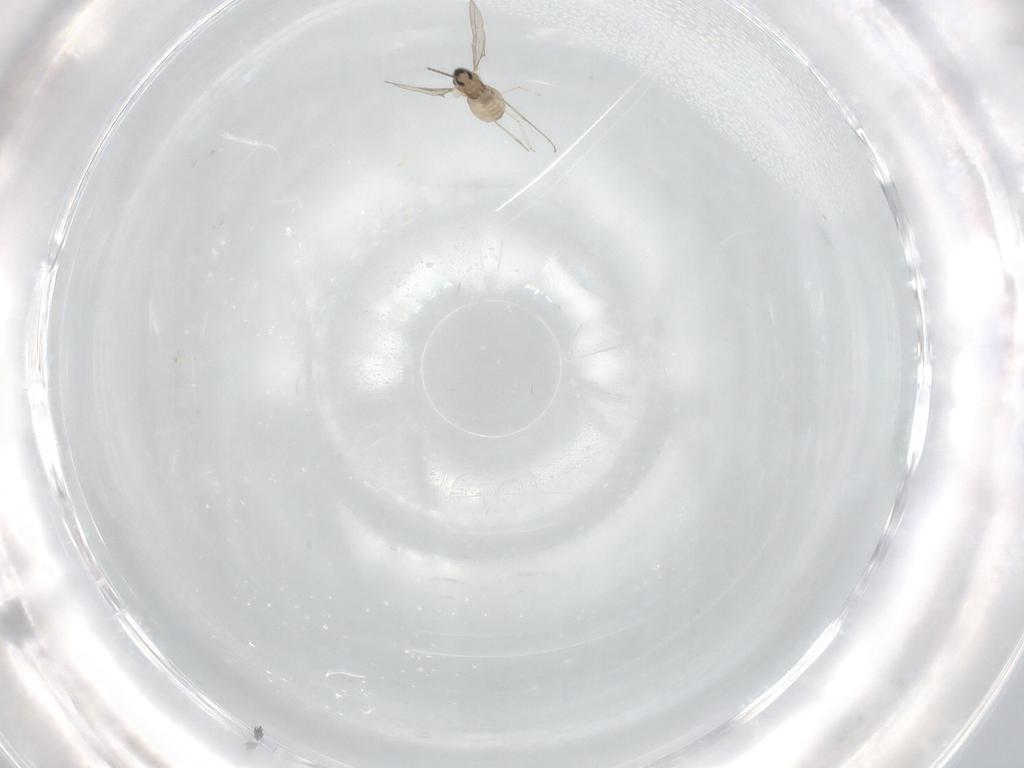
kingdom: Animalia
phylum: Arthropoda
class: Insecta
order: Diptera
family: Cecidomyiidae
